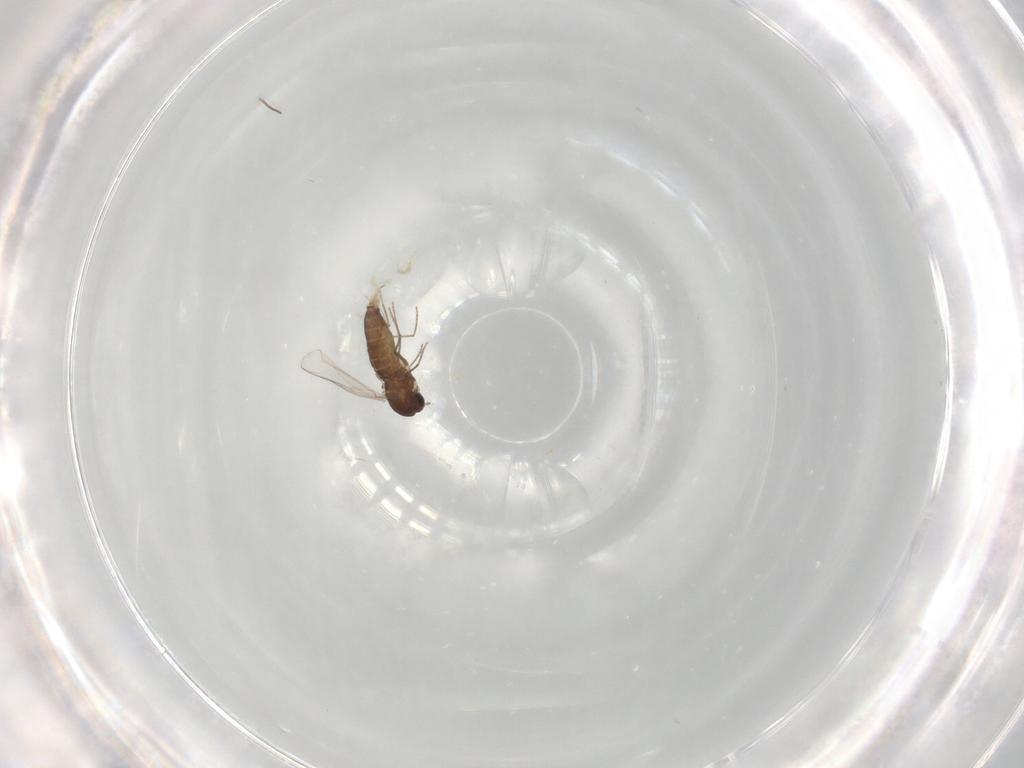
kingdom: Animalia
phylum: Arthropoda
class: Insecta
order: Diptera
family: Chironomidae
